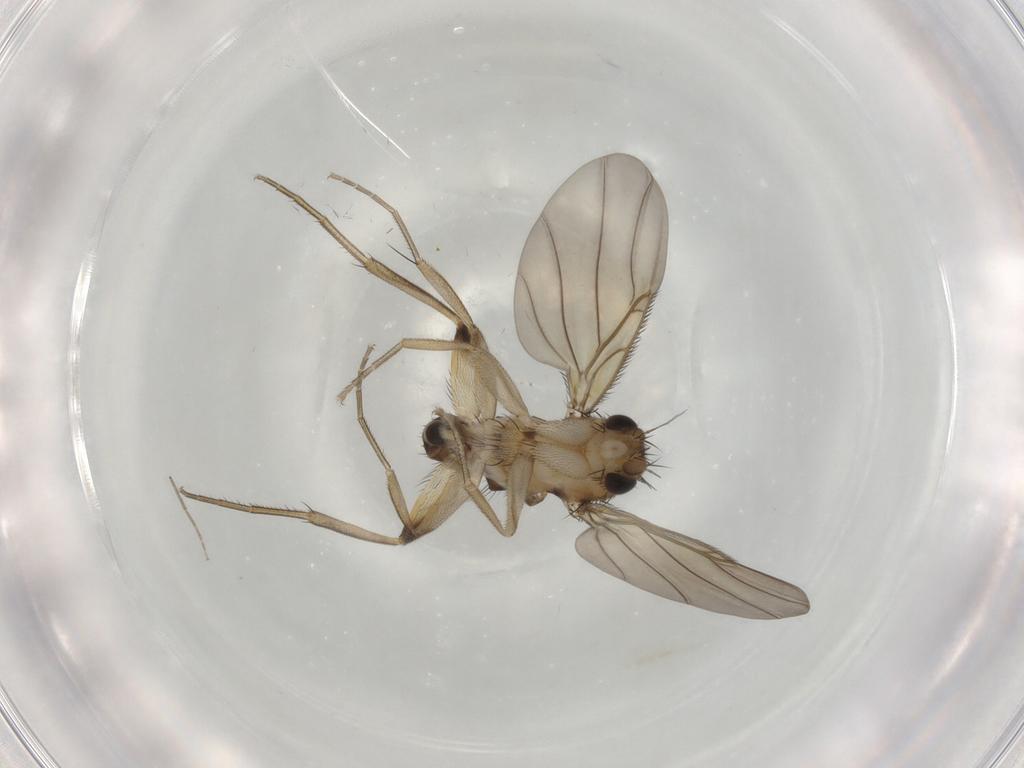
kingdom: Animalia
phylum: Arthropoda
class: Insecta
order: Diptera
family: Phoridae
